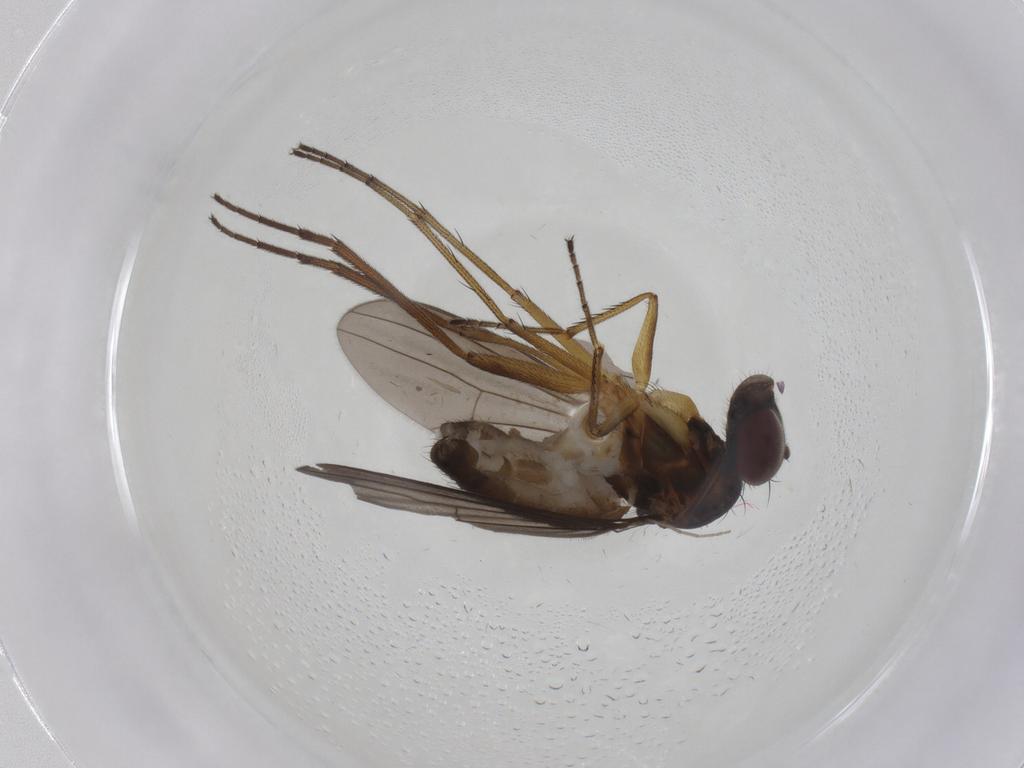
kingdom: Animalia
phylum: Arthropoda
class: Insecta
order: Diptera
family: Dolichopodidae
